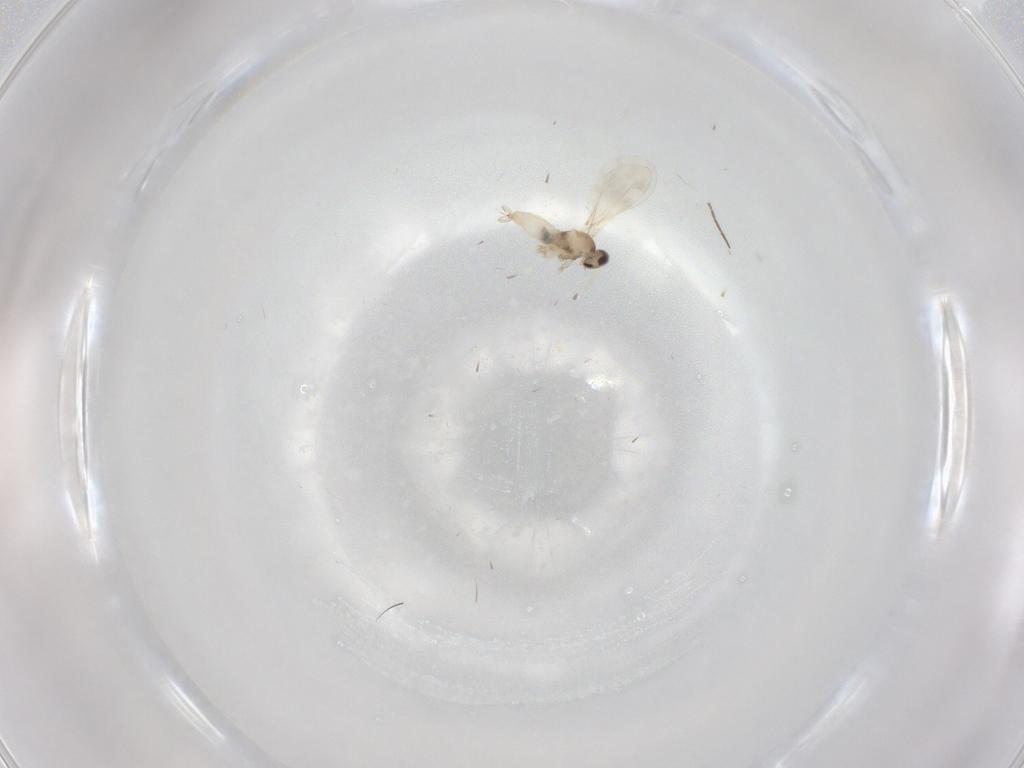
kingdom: Animalia
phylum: Arthropoda
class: Insecta
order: Diptera
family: Cecidomyiidae
